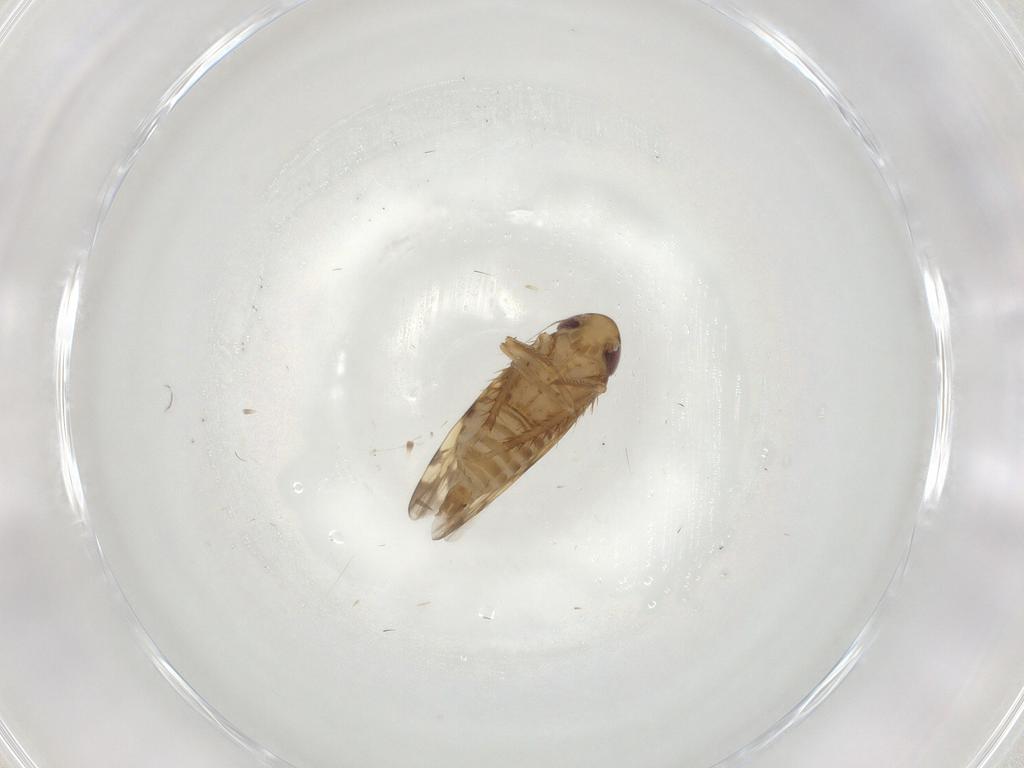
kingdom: Animalia
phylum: Arthropoda
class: Insecta
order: Hemiptera
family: Cicadellidae
